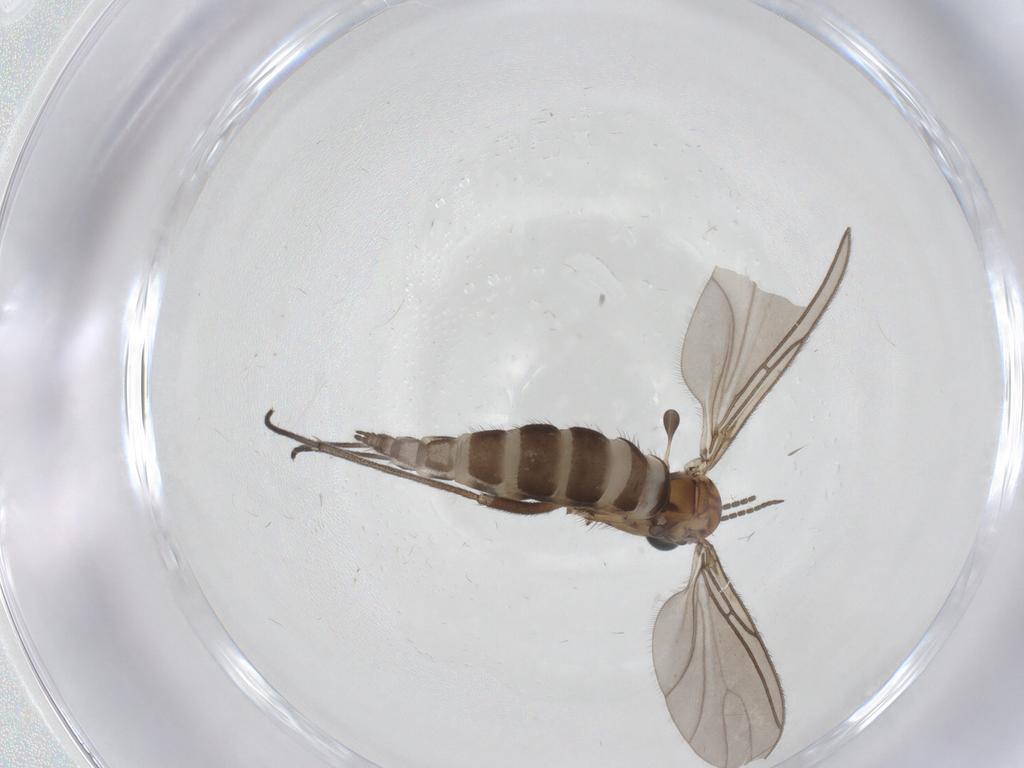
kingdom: Animalia
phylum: Arthropoda
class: Insecta
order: Diptera
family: Sciaridae
